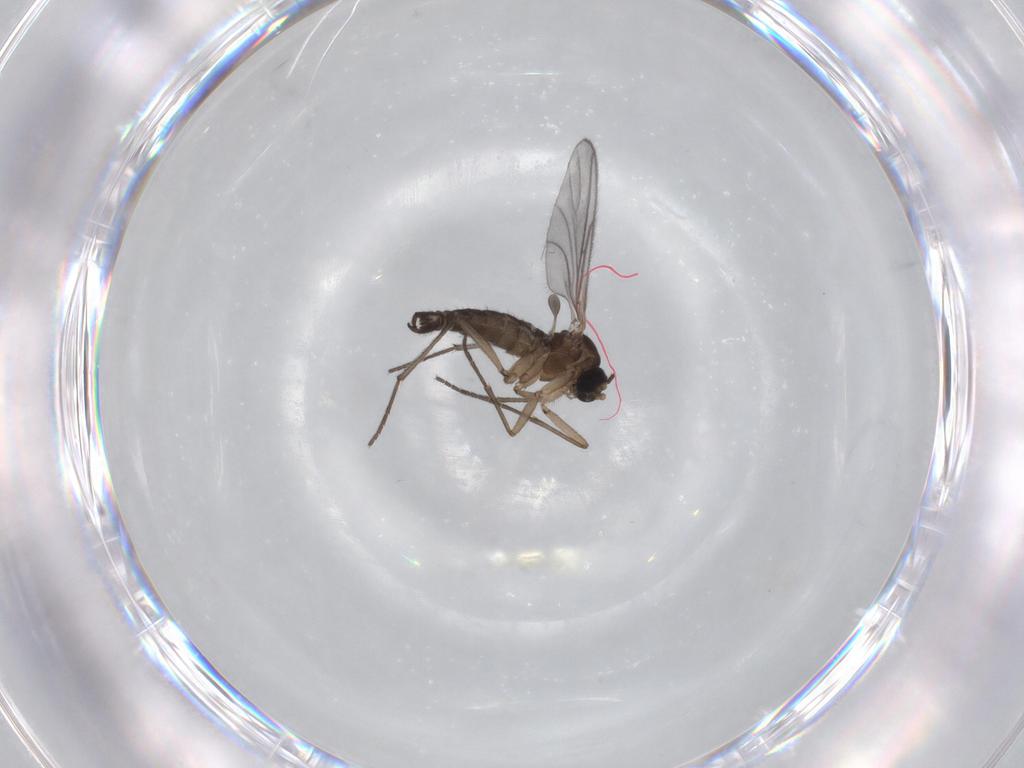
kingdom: Animalia
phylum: Arthropoda
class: Insecta
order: Diptera
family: Sciaridae
